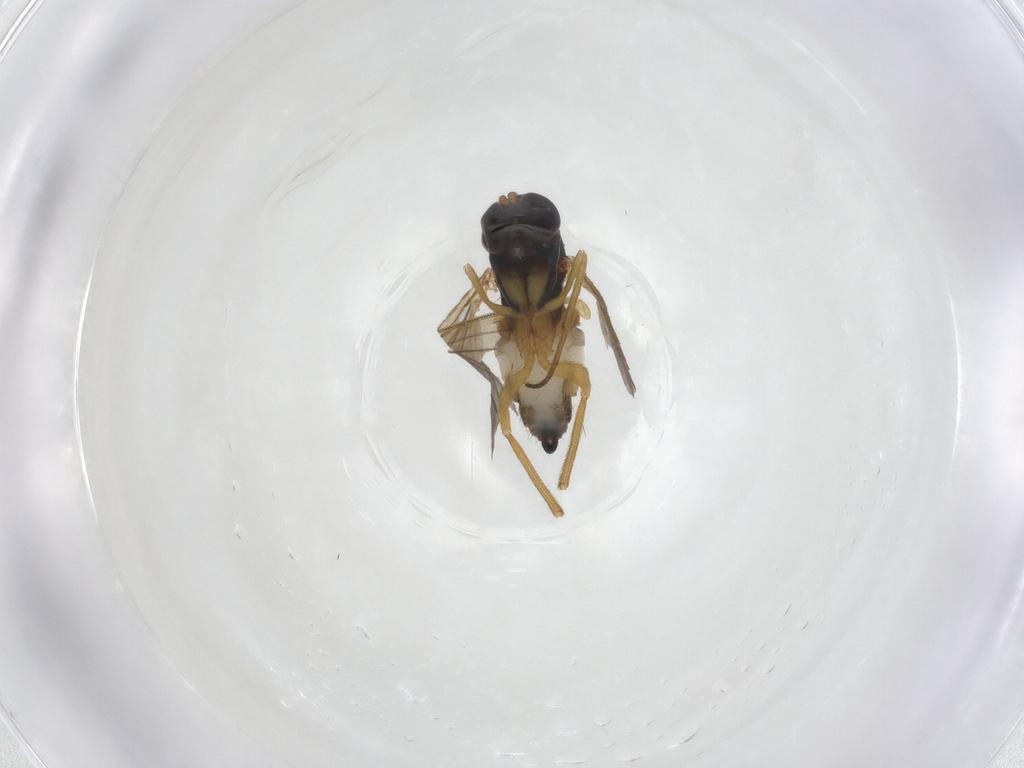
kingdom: Animalia
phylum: Arthropoda
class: Insecta
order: Diptera
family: Dolichopodidae
